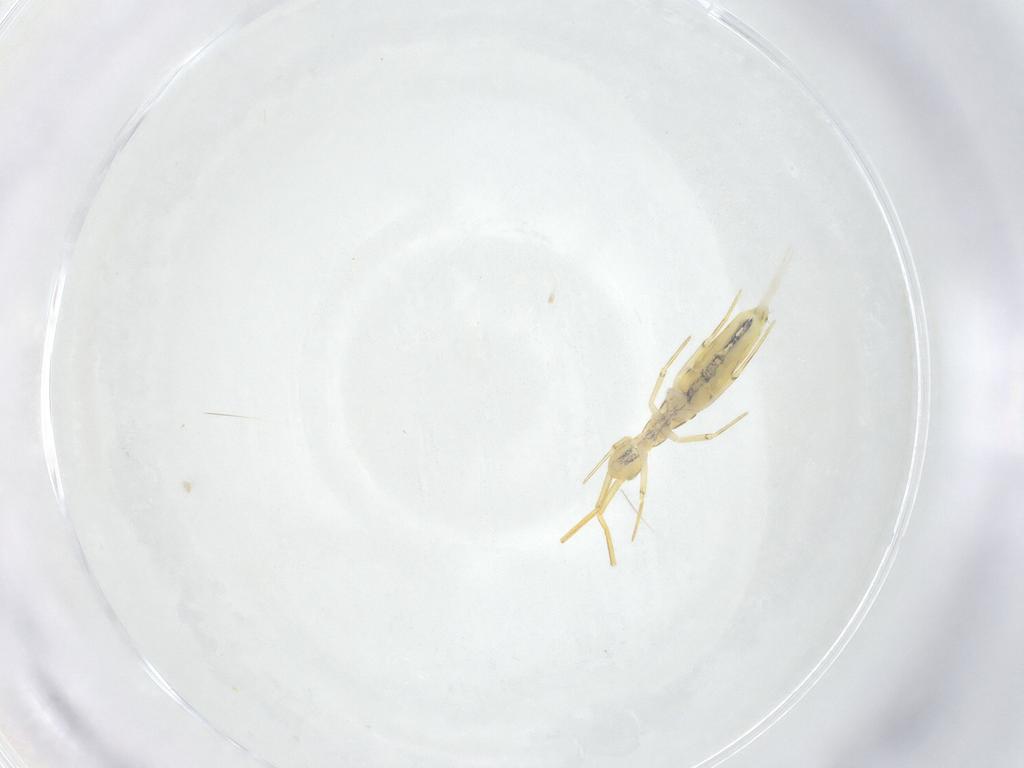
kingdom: Animalia
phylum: Arthropoda
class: Collembola
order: Entomobryomorpha
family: Entomobryidae
